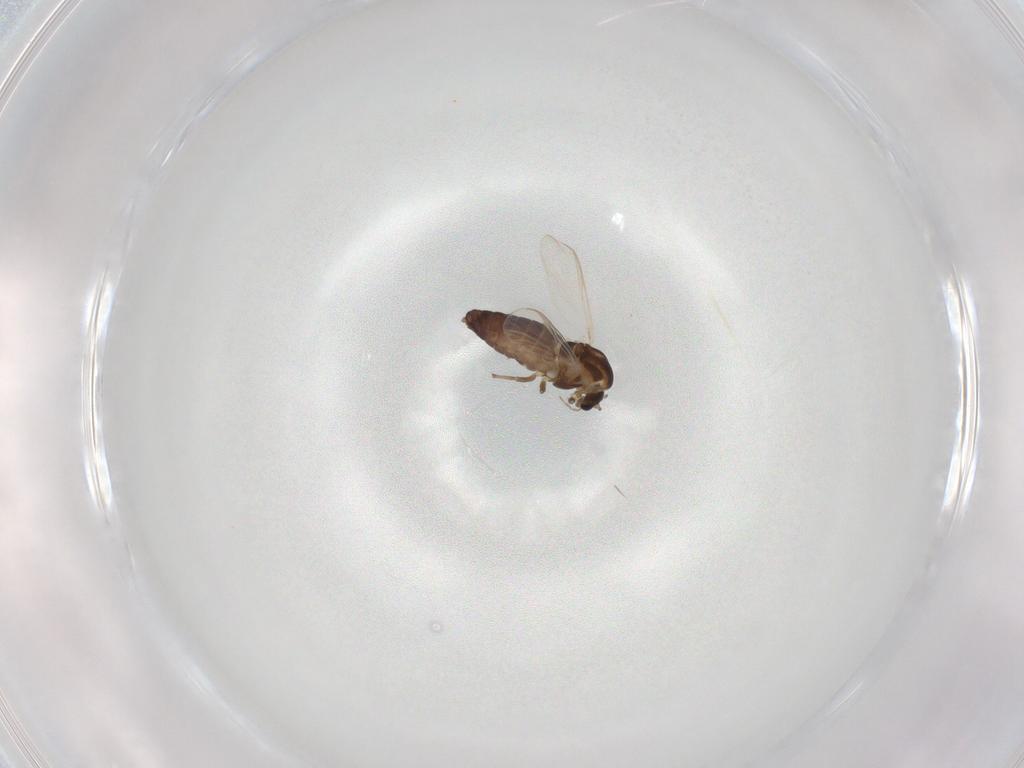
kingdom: Animalia
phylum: Arthropoda
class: Insecta
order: Diptera
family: Chironomidae
